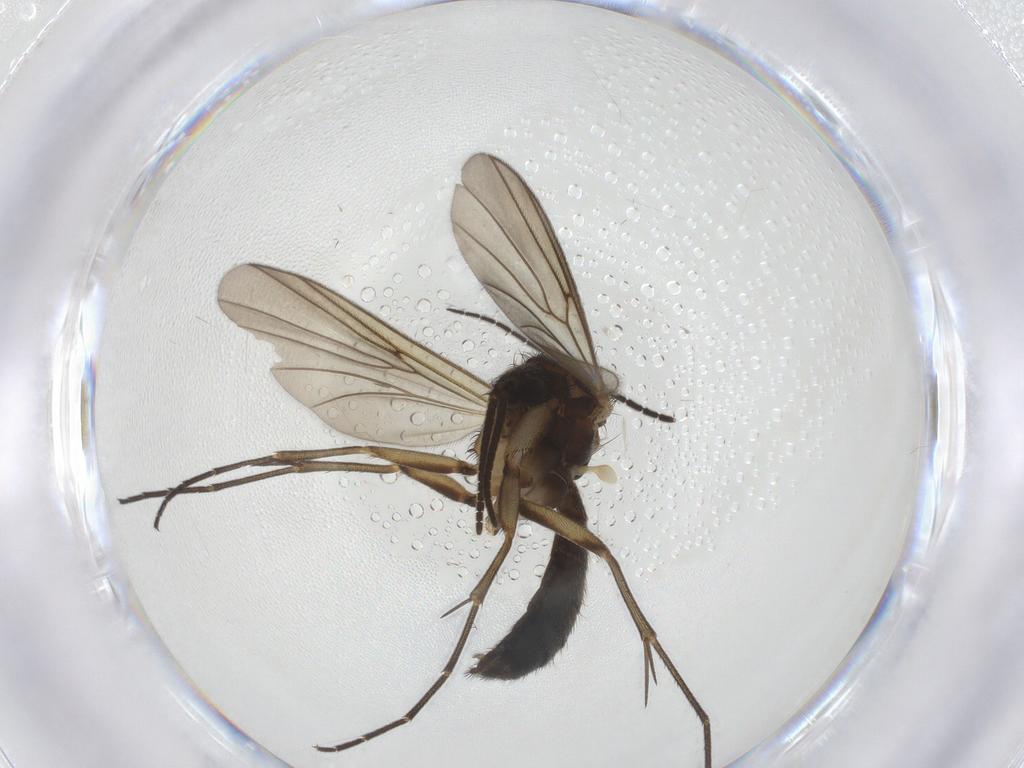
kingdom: Animalia
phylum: Arthropoda
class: Insecta
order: Diptera
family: Mycetophilidae
